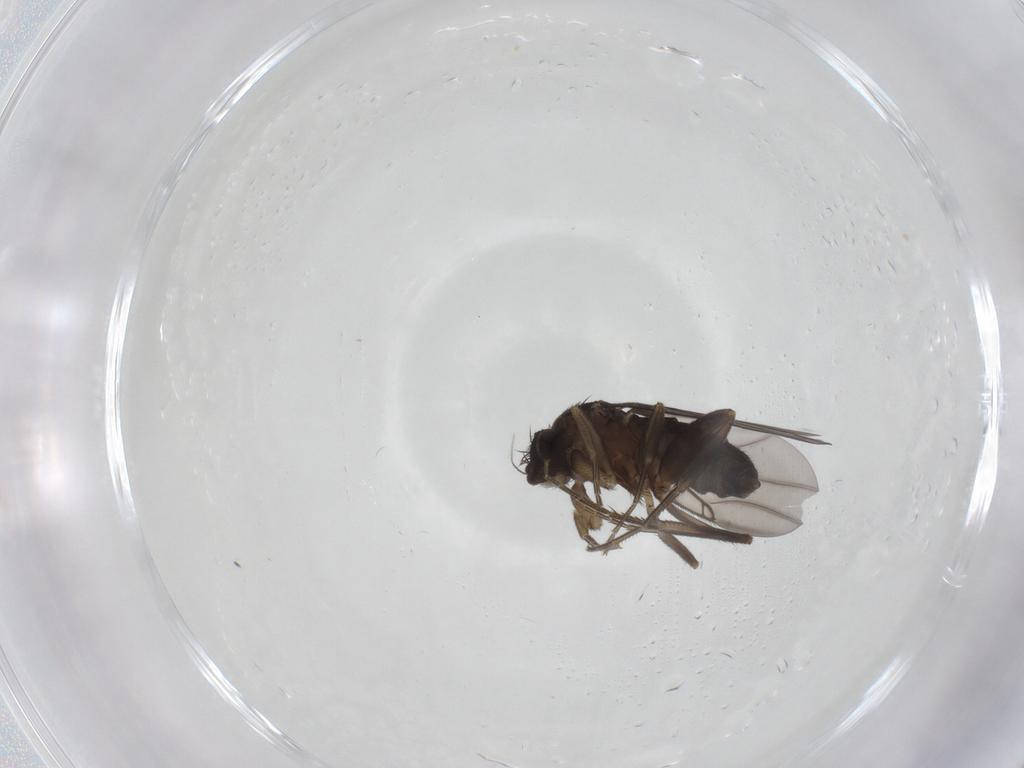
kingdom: Animalia
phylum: Arthropoda
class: Insecta
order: Diptera
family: Phoridae
